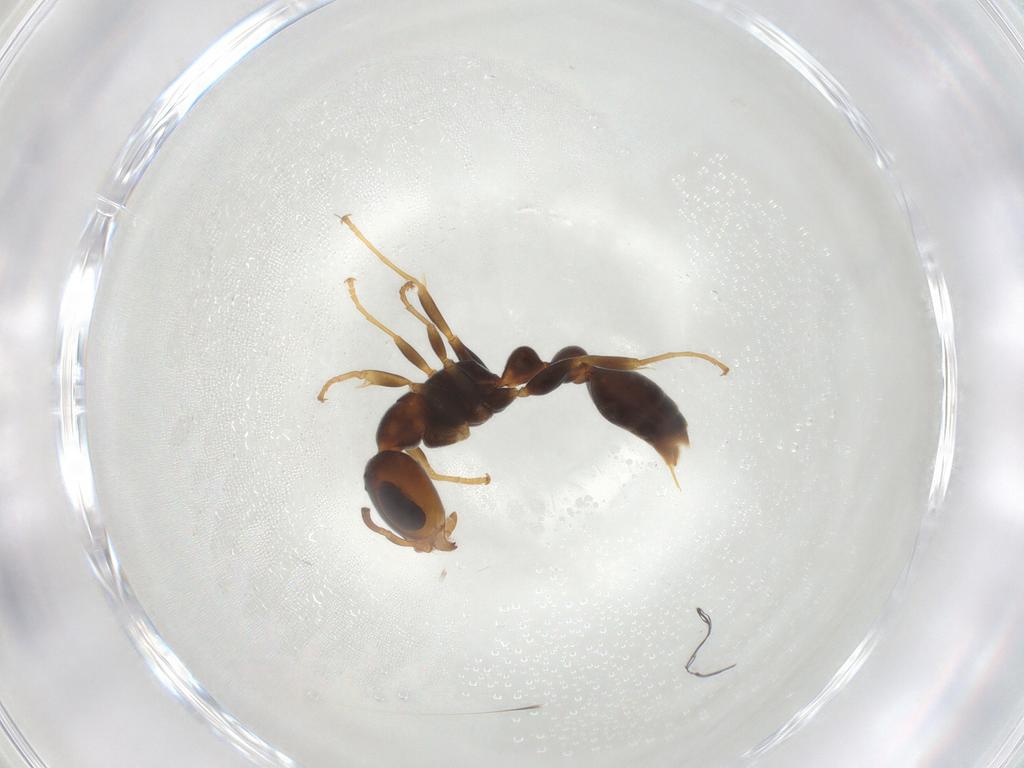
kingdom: Animalia
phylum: Arthropoda
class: Insecta
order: Hymenoptera
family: Formicidae
